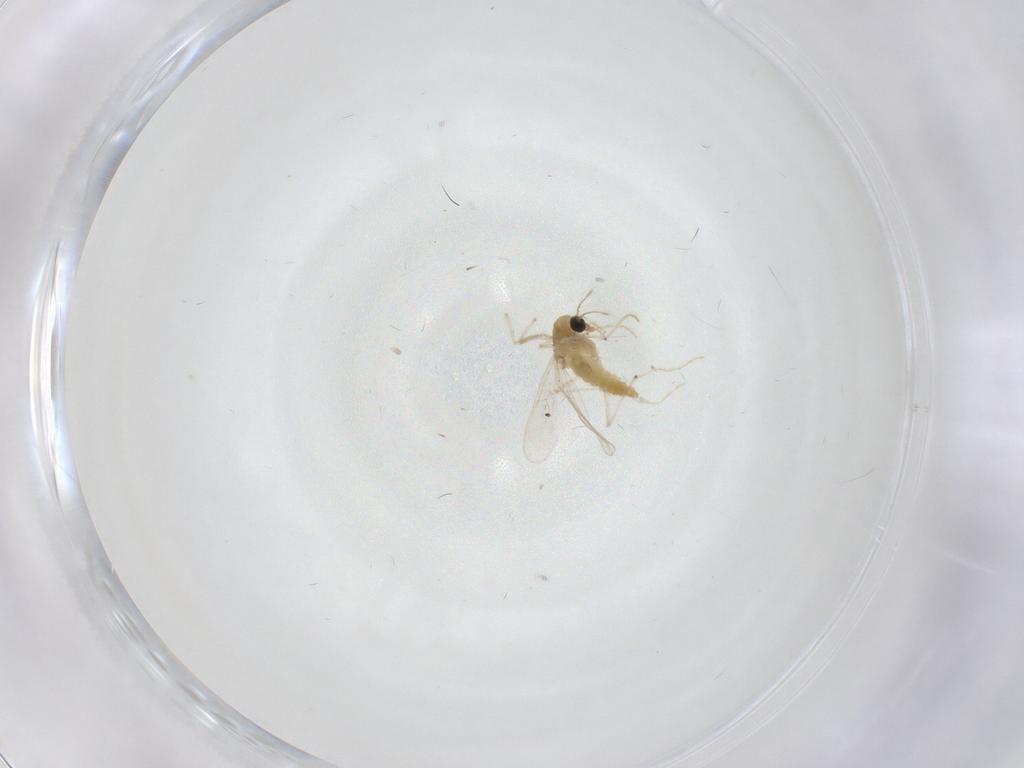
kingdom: Animalia
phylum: Arthropoda
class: Insecta
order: Diptera
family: Chironomidae
